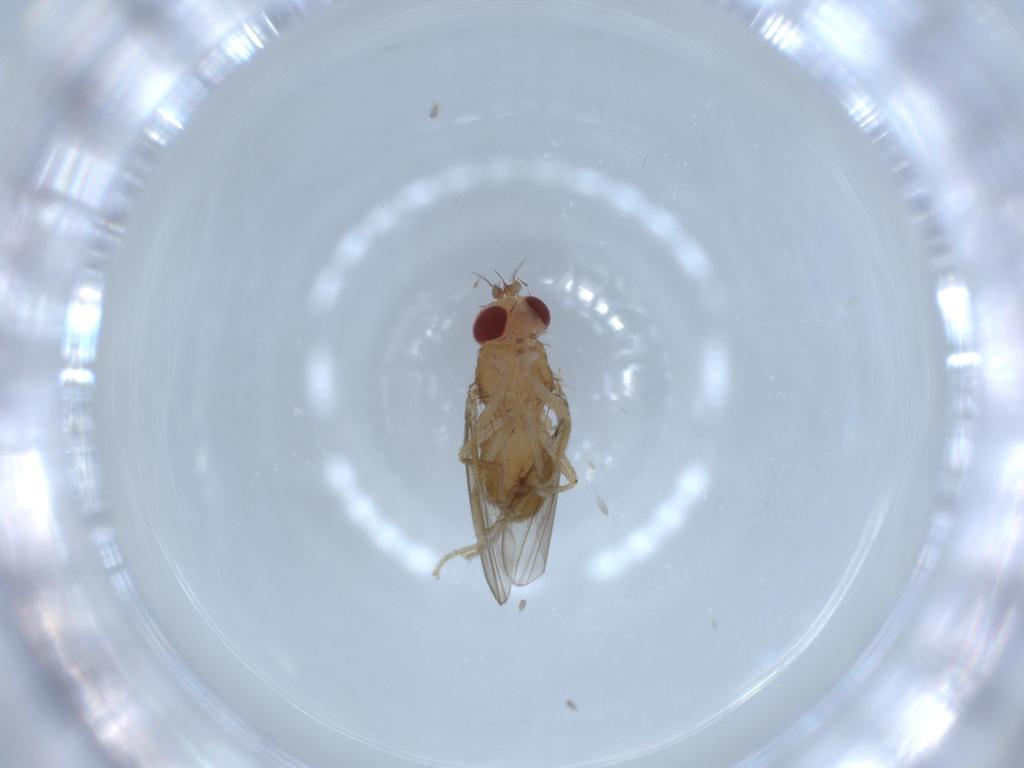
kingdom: Animalia
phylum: Arthropoda
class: Insecta
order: Diptera
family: Drosophilidae
